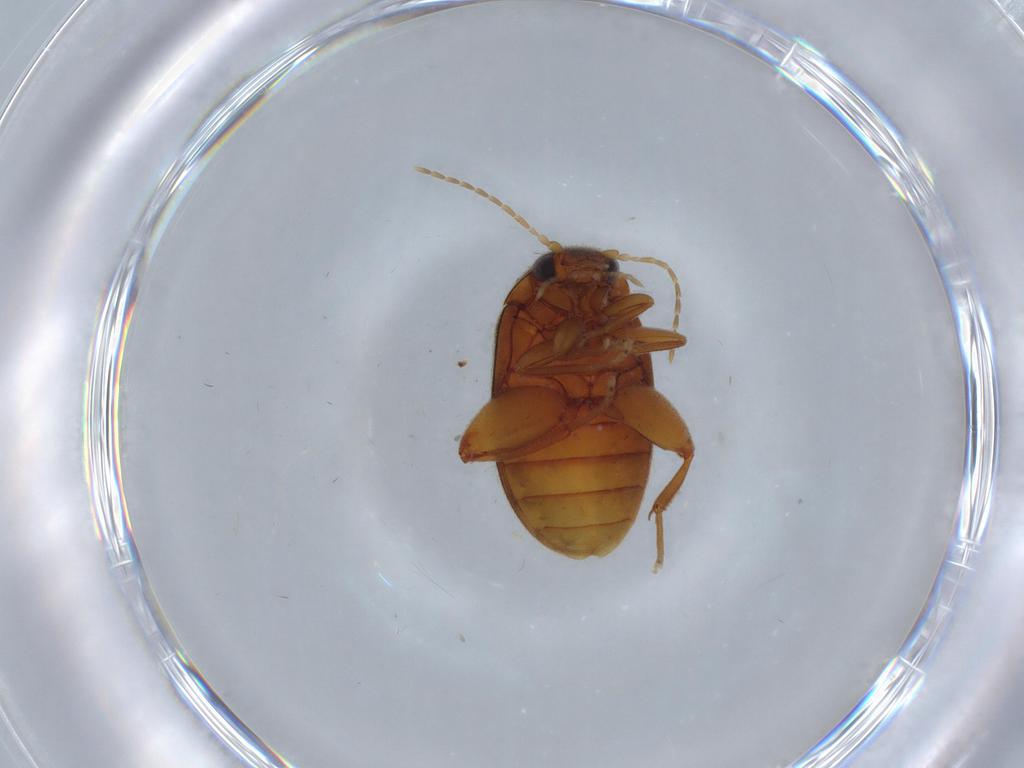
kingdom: Animalia
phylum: Arthropoda
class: Insecta
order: Coleoptera
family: Scirtidae
